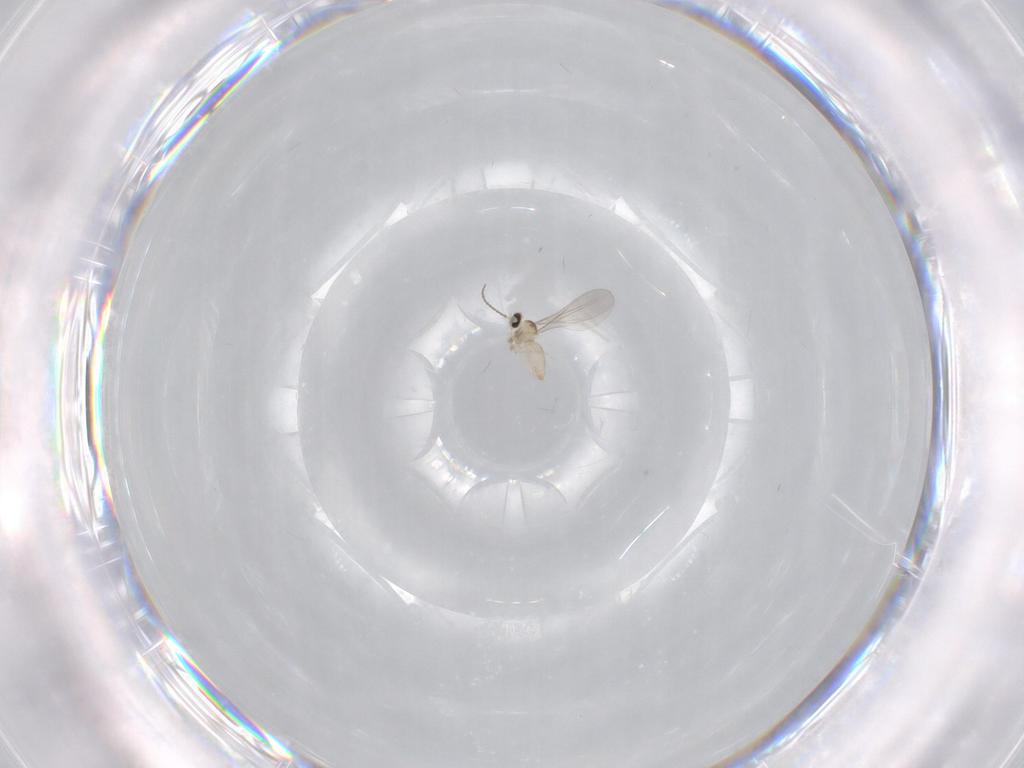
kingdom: Animalia
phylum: Arthropoda
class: Insecta
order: Diptera
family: Cecidomyiidae
